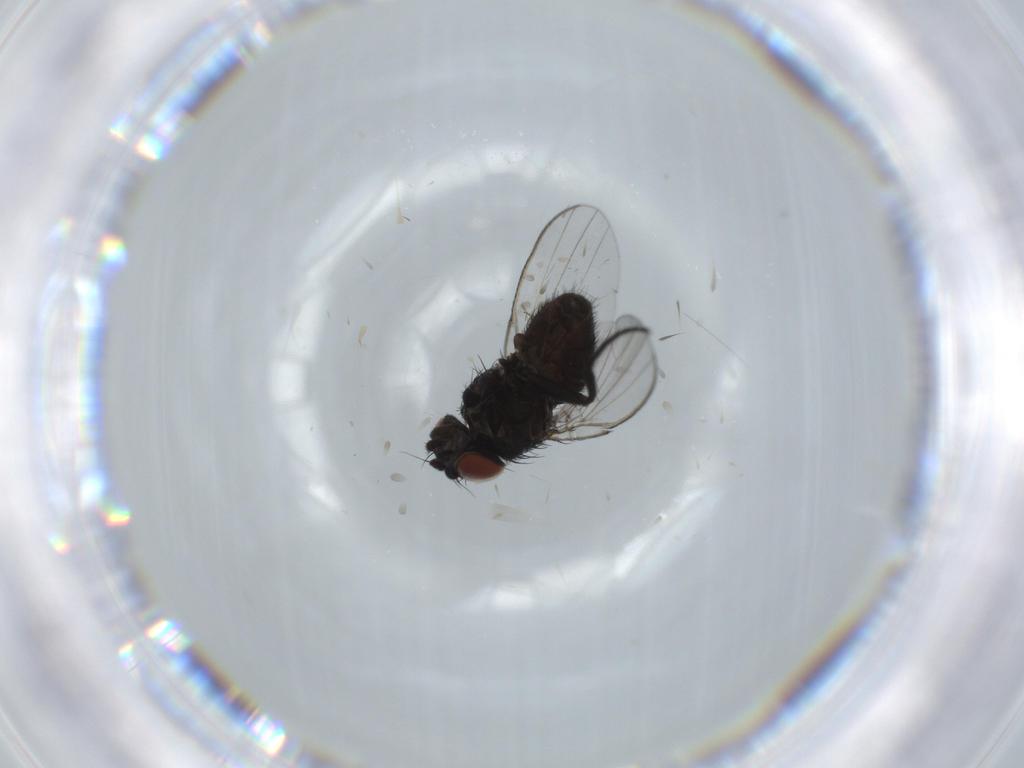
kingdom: Animalia
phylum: Arthropoda
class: Insecta
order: Diptera
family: Milichiidae
